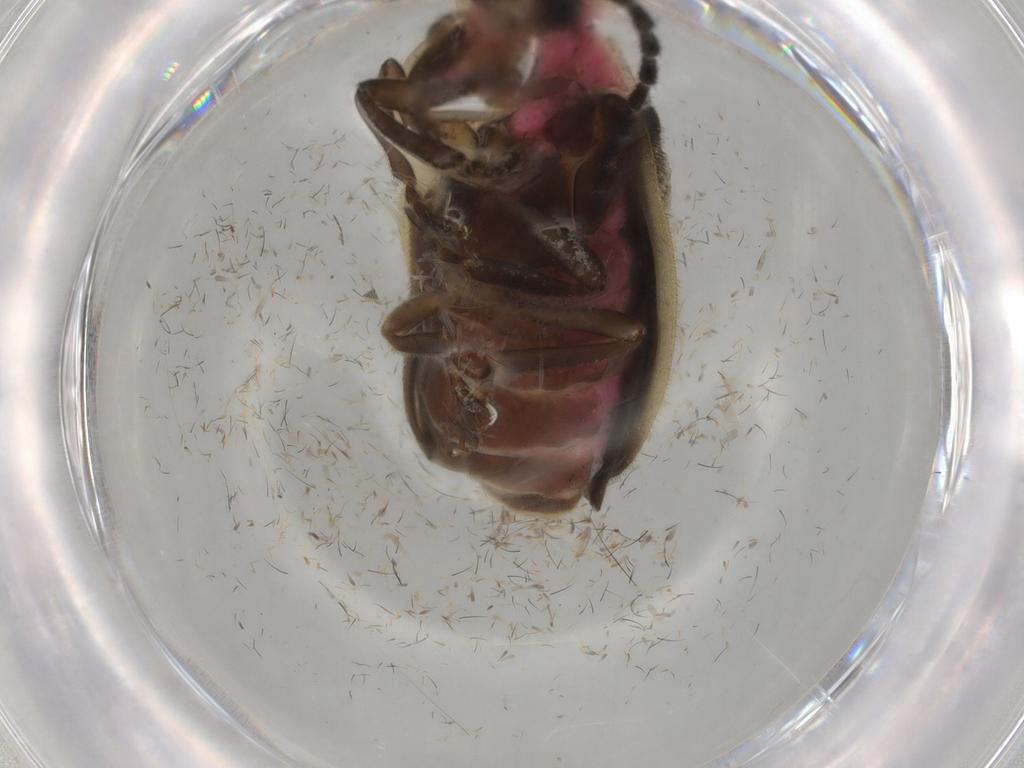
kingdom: Animalia
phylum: Arthropoda
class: Insecta
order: Coleoptera
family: Lampyridae
